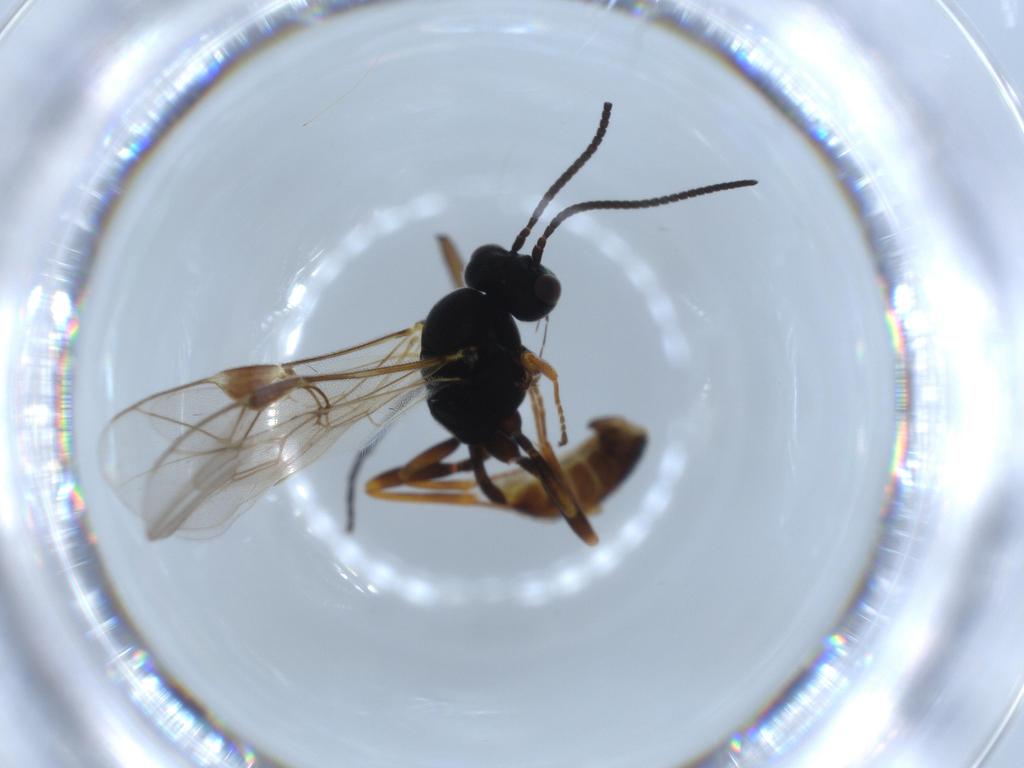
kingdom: Animalia
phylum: Arthropoda
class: Insecta
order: Hymenoptera
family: Ichneumonidae
